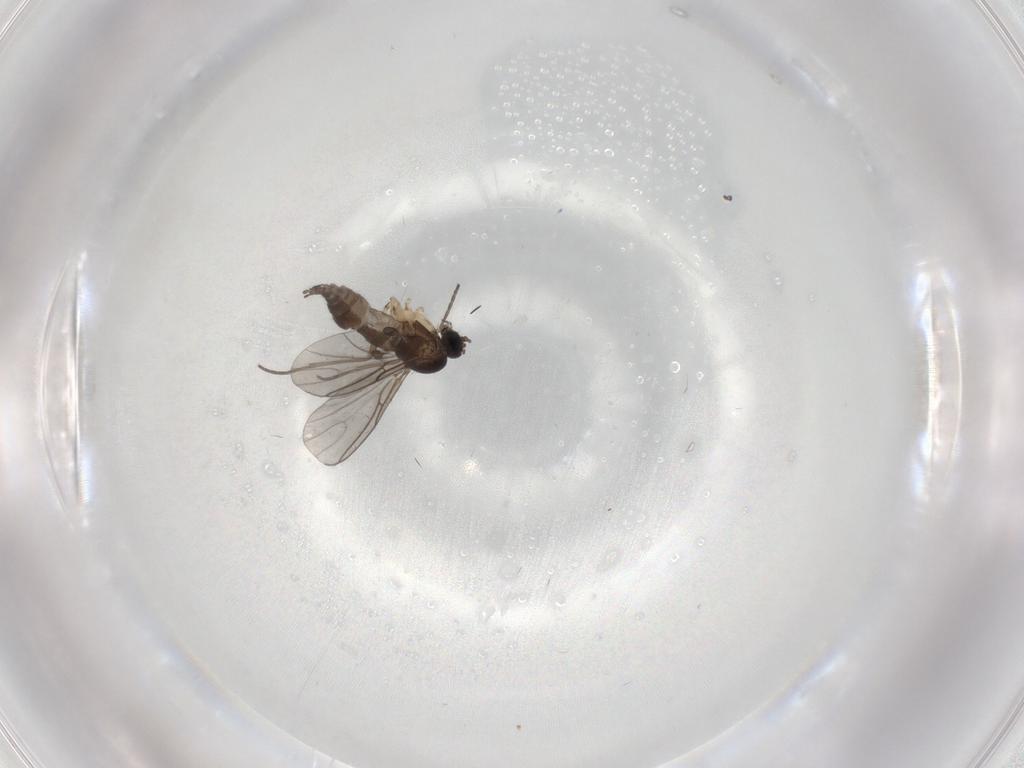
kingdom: Animalia
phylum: Arthropoda
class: Insecta
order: Diptera
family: Sciaridae
